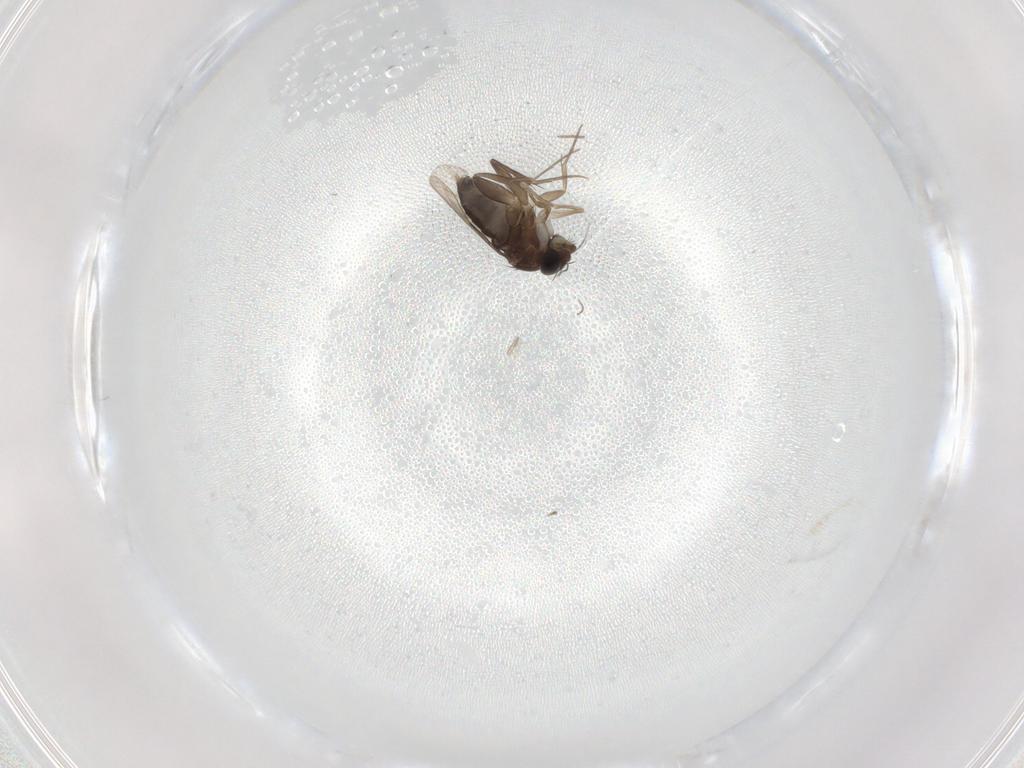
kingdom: Animalia
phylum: Arthropoda
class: Insecta
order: Diptera
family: Phoridae
